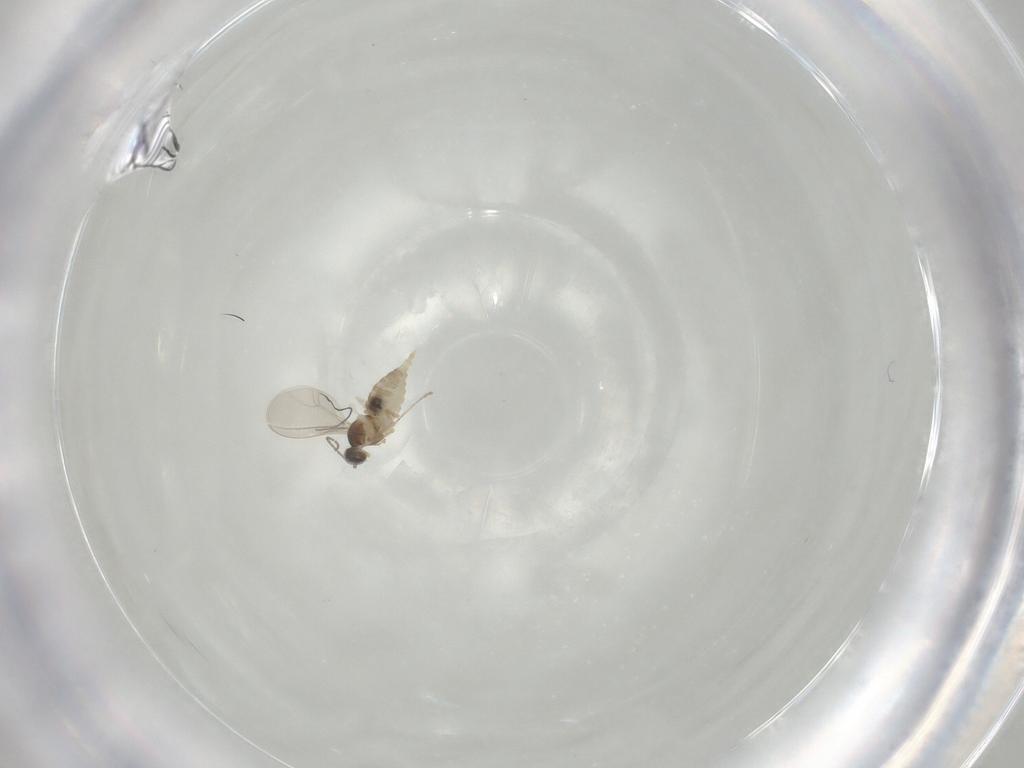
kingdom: Animalia
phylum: Arthropoda
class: Insecta
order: Diptera
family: Cecidomyiidae
